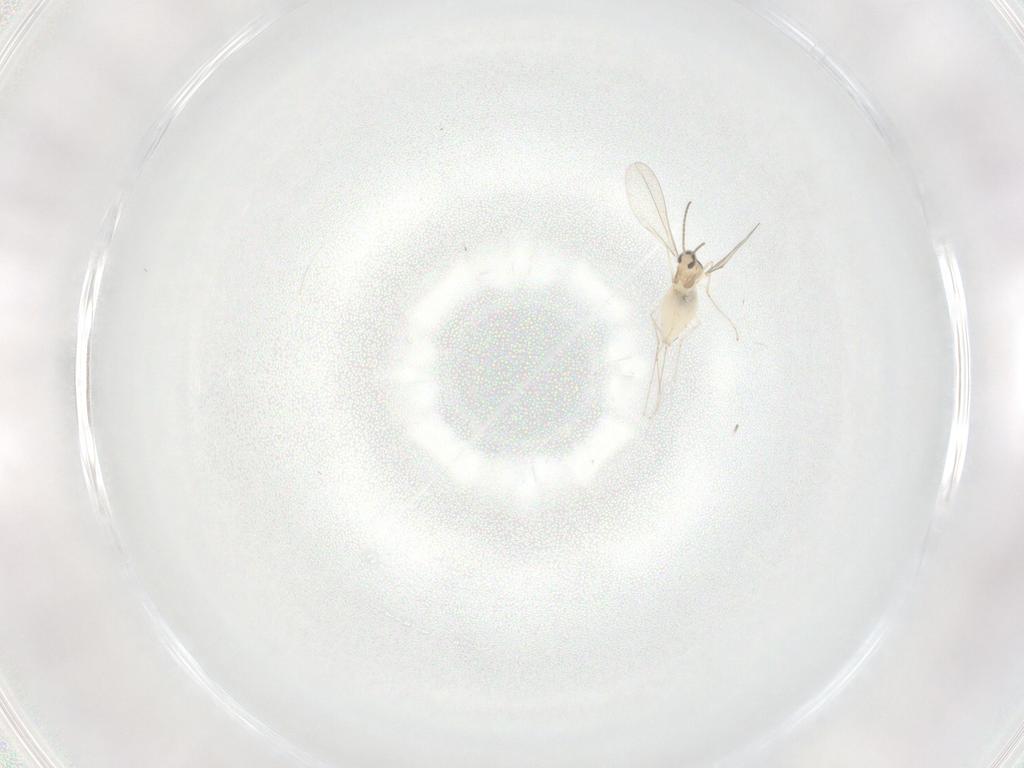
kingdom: Animalia
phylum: Arthropoda
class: Insecta
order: Diptera
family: Cecidomyiidae
